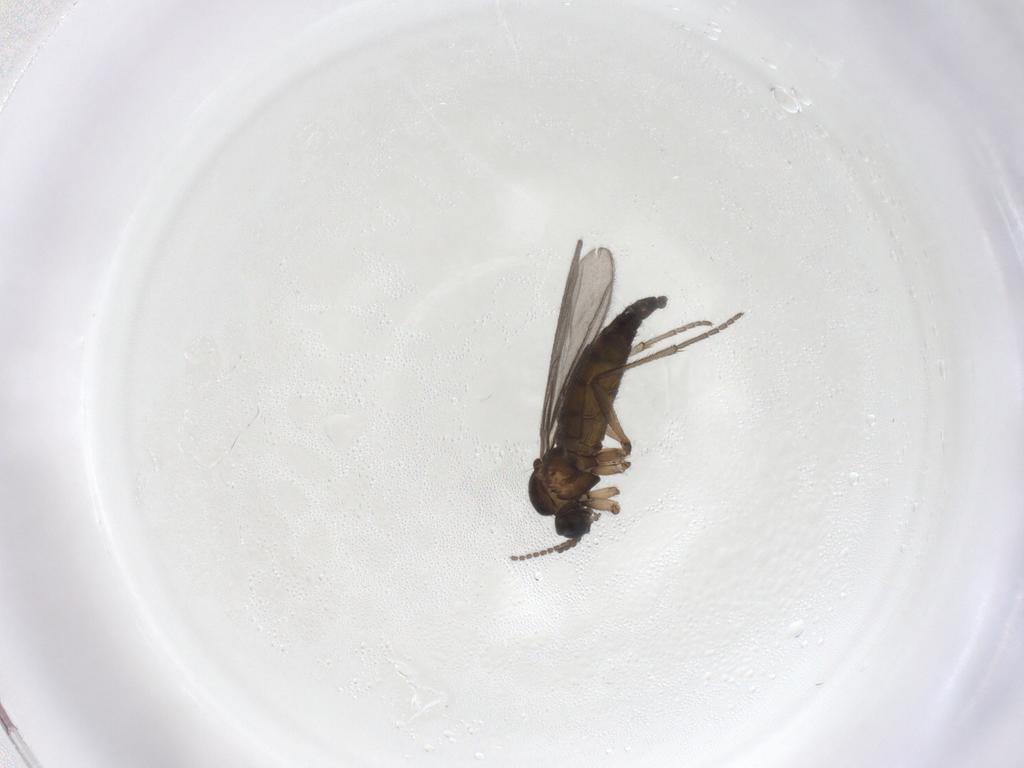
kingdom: Animalia
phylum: Arthropoda
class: Insecta
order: Diptera
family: Sciaridae
